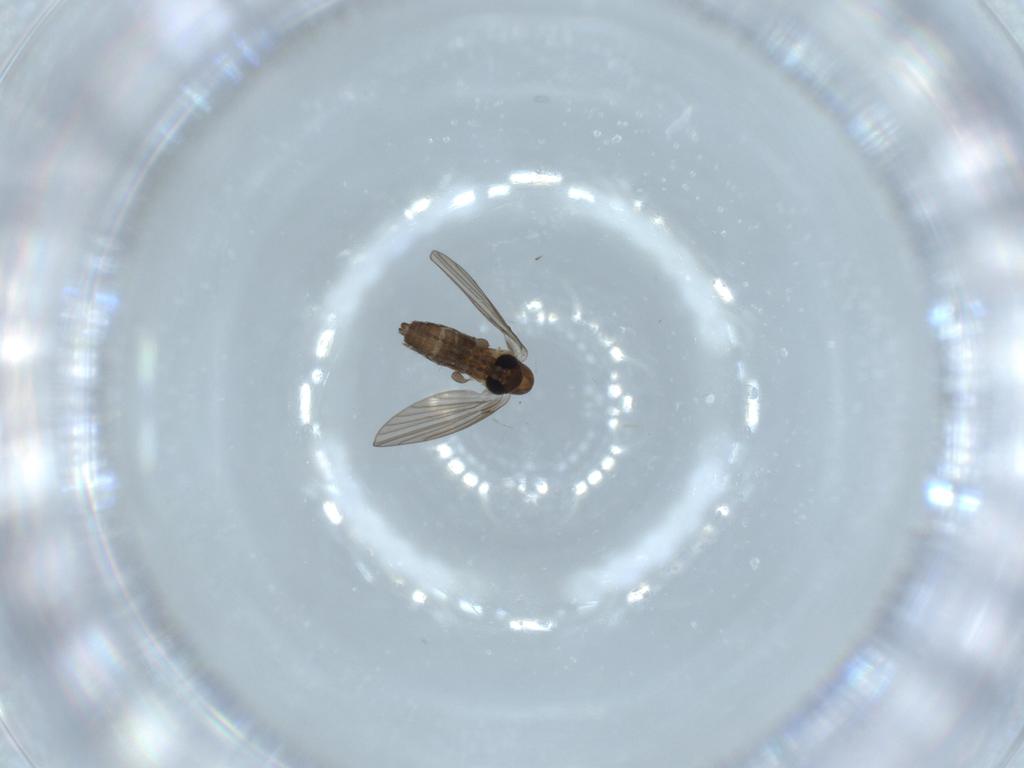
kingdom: Animalia
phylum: Arthropoda
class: Insecta
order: Diptera
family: Psychodidae
